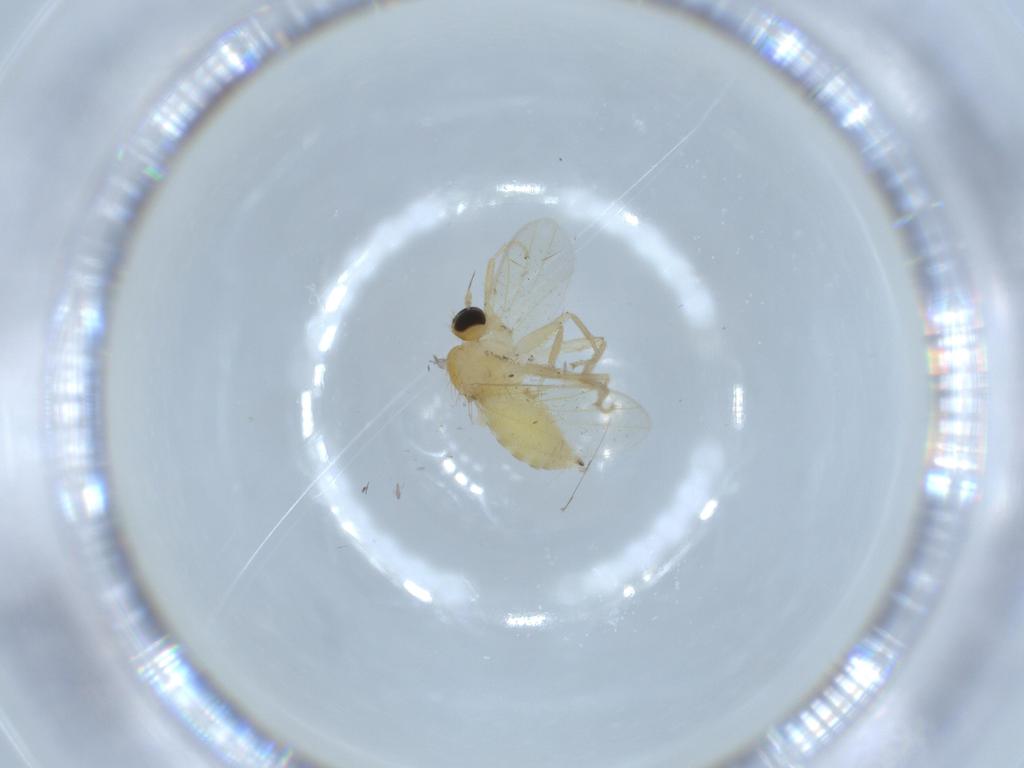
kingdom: Animalia
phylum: Arthropoda
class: Insecta
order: Diptera
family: Hybotidae
